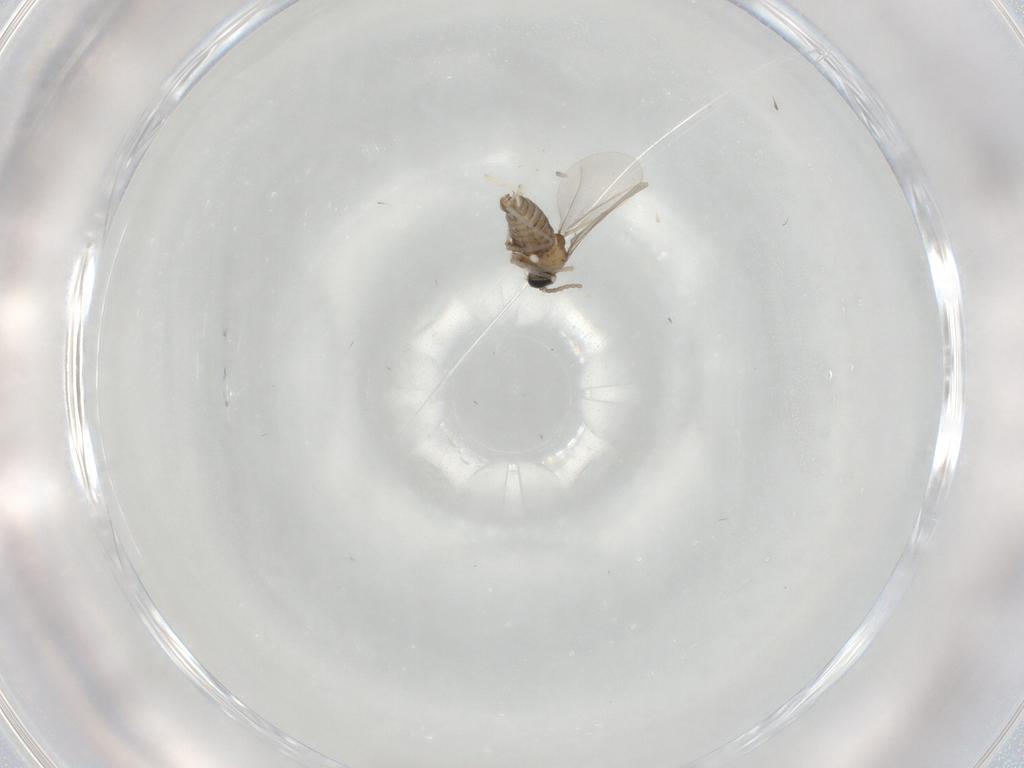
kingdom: Animalia
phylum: Arthropoda
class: Insecta
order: Diptera
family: Cecidomyiidae
